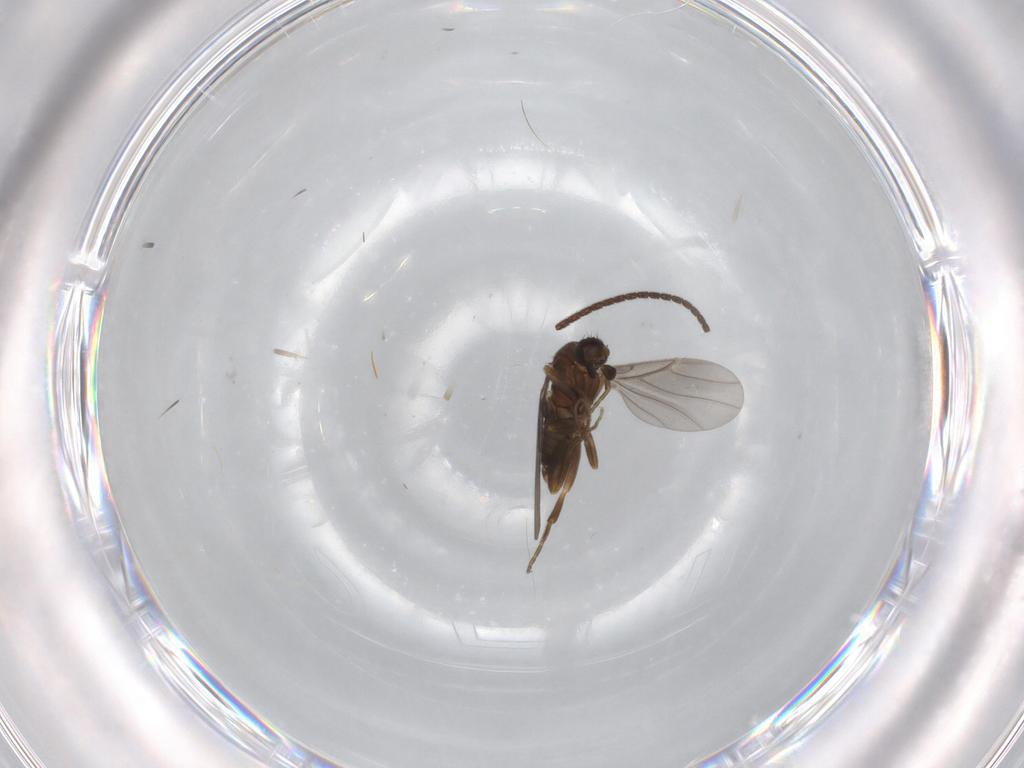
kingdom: Animalia
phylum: Arthropoda
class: Insecta
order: Diptera
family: Phoridae
